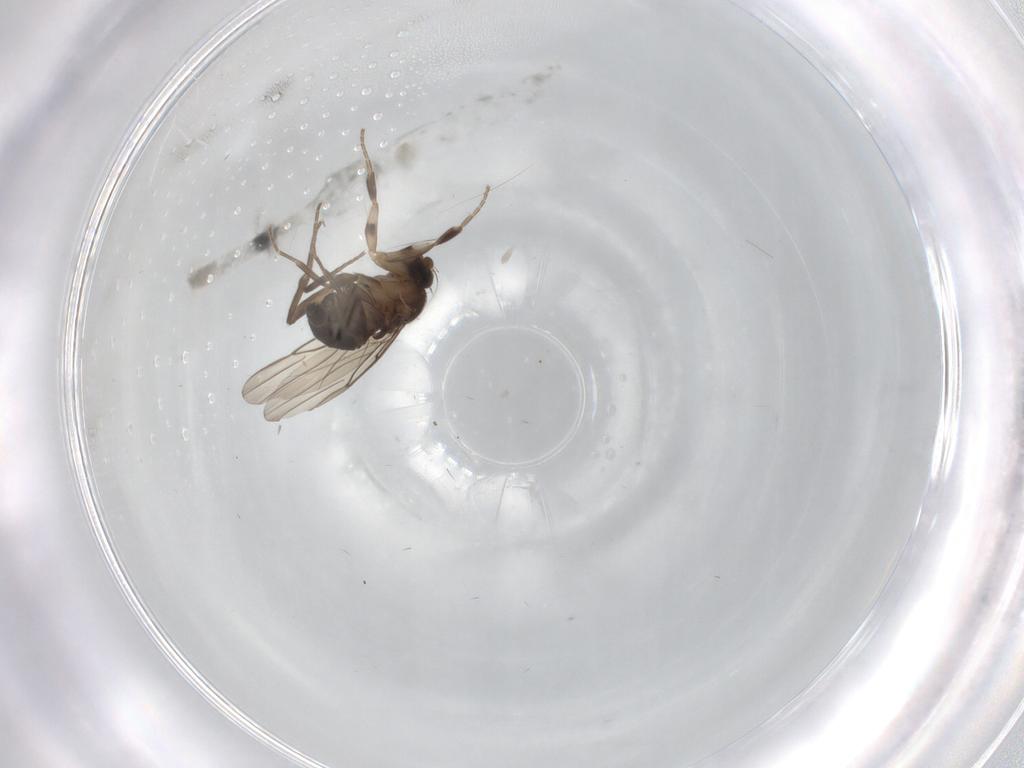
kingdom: Animalia
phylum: Arthropoda
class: Insecta
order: Diptera
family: Phoridae
